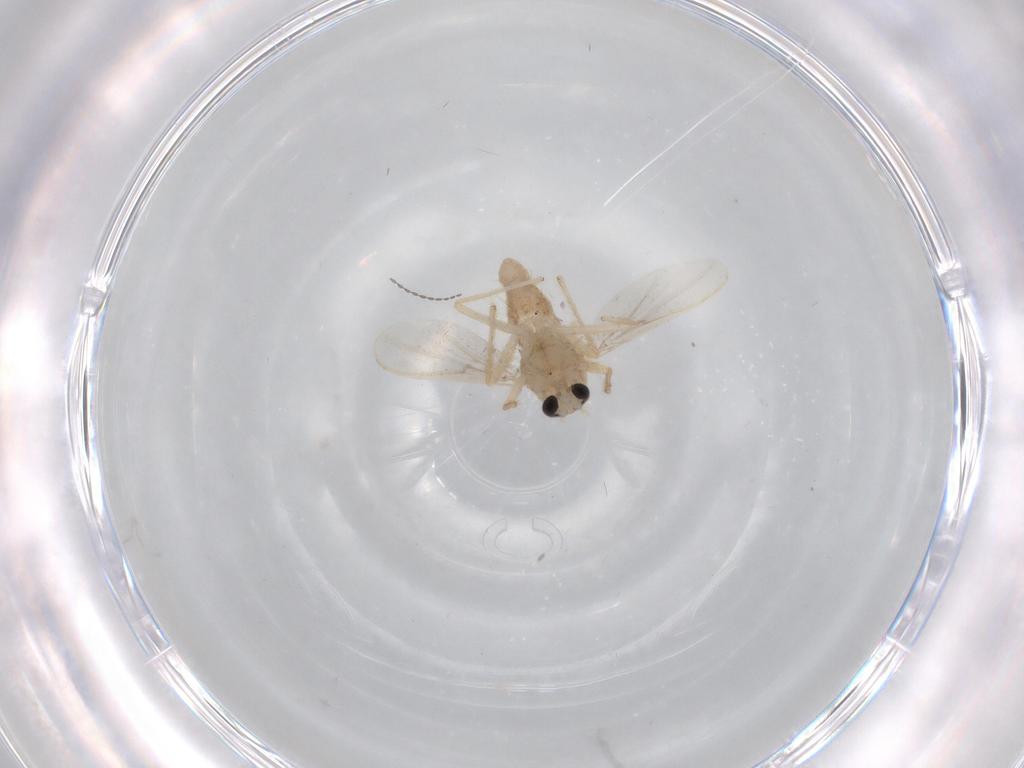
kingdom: Animalia
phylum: Arthropoda
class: Insecta
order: Diptera
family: Chironomidae
